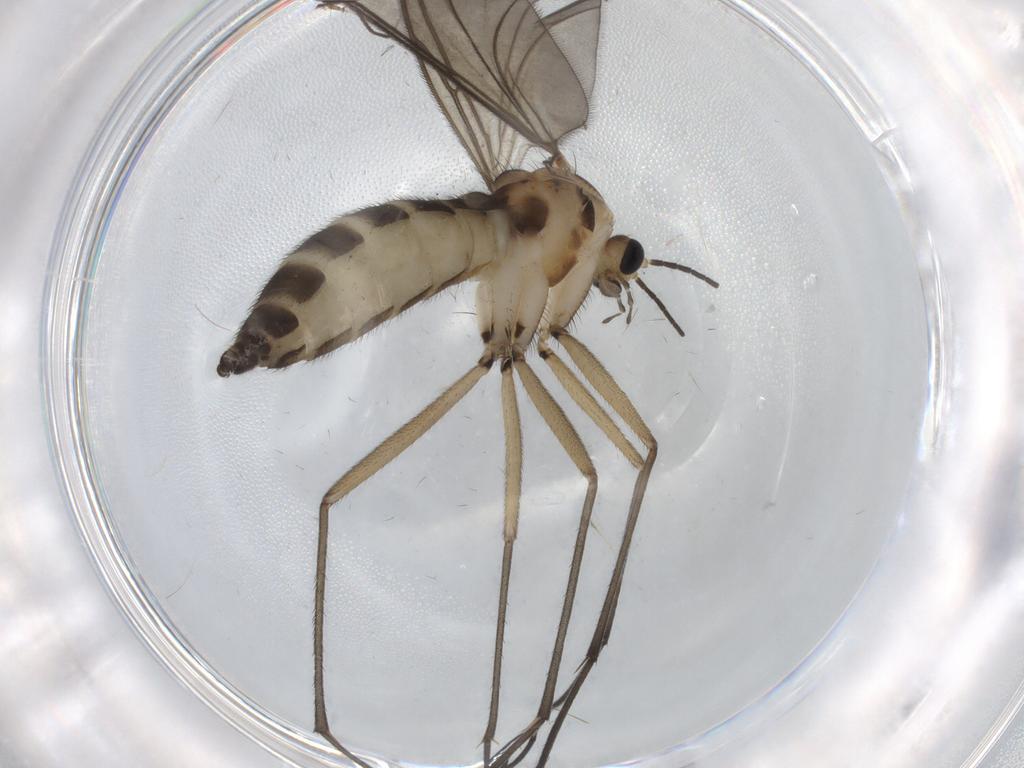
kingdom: Animalia
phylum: Arthropoda
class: Insecta
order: Diptera
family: Sciaridae
